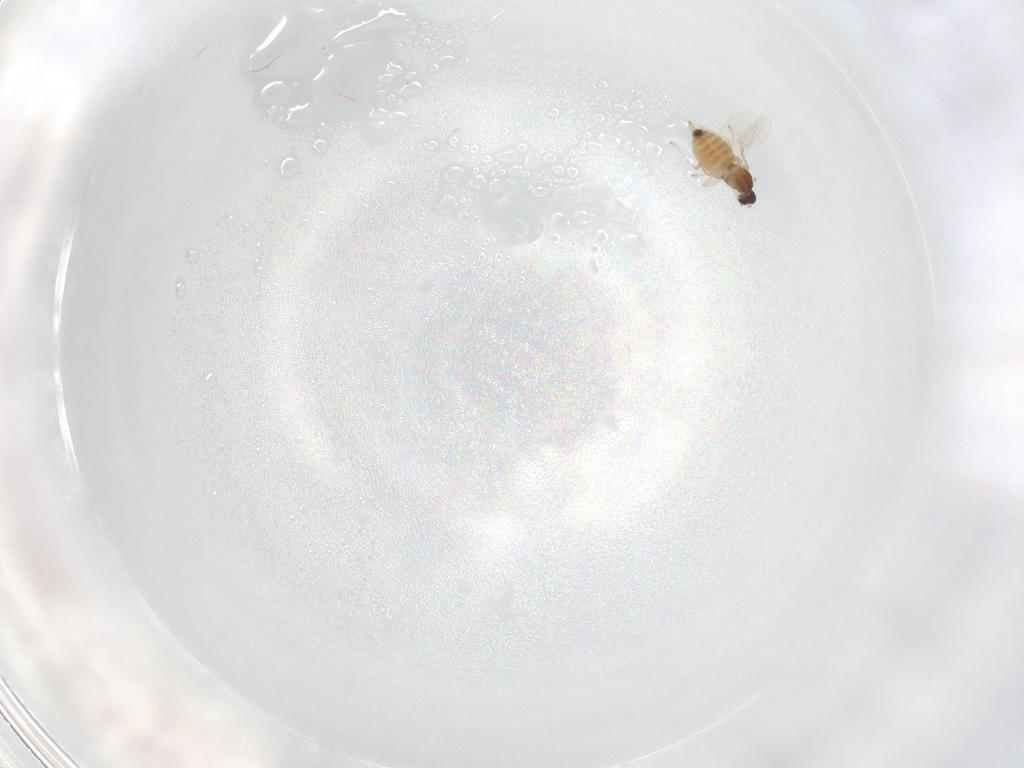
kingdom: Animalia
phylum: Arthropoda
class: Insecta
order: Diptera
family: Cecidomyiidae
